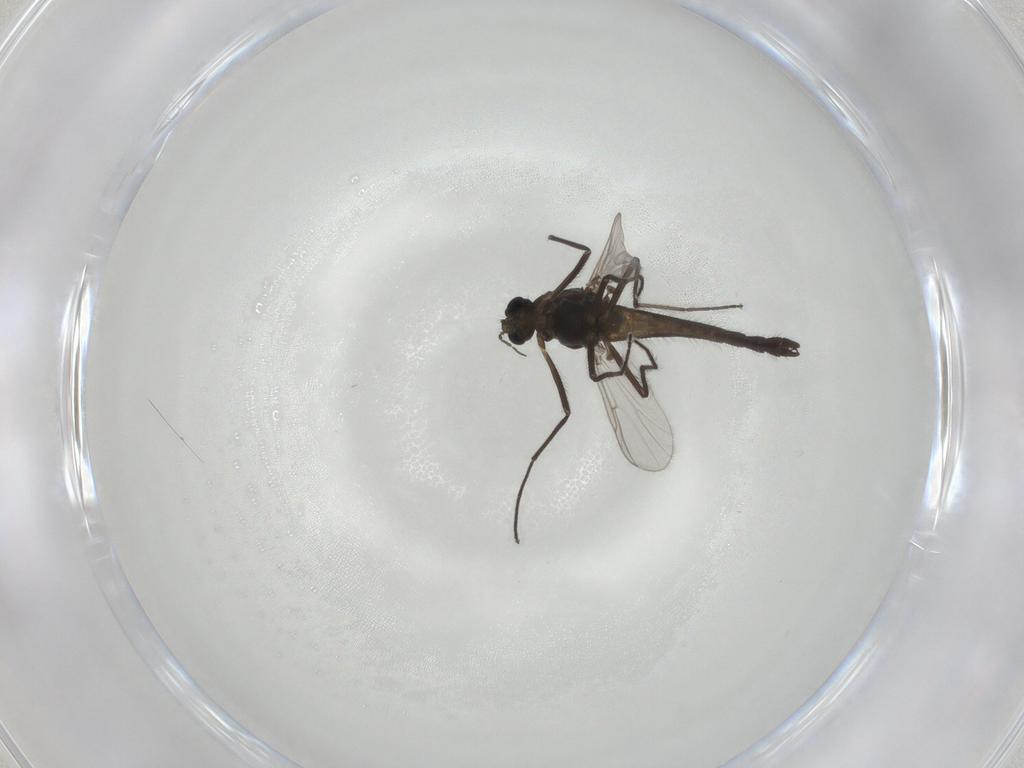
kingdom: Animalia
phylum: Arthropoda
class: Insecta
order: Diptera
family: Chironomidae
